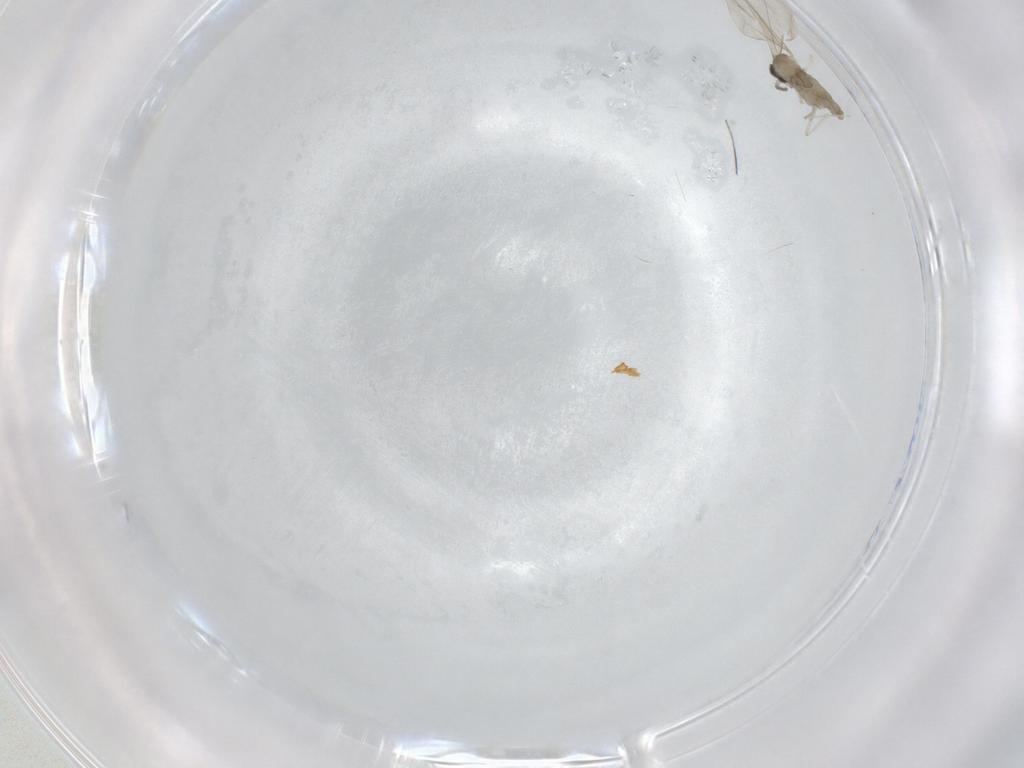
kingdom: Animalia
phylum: Arthropoda
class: Insecta
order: Diptera
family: Cecidomyiidae
